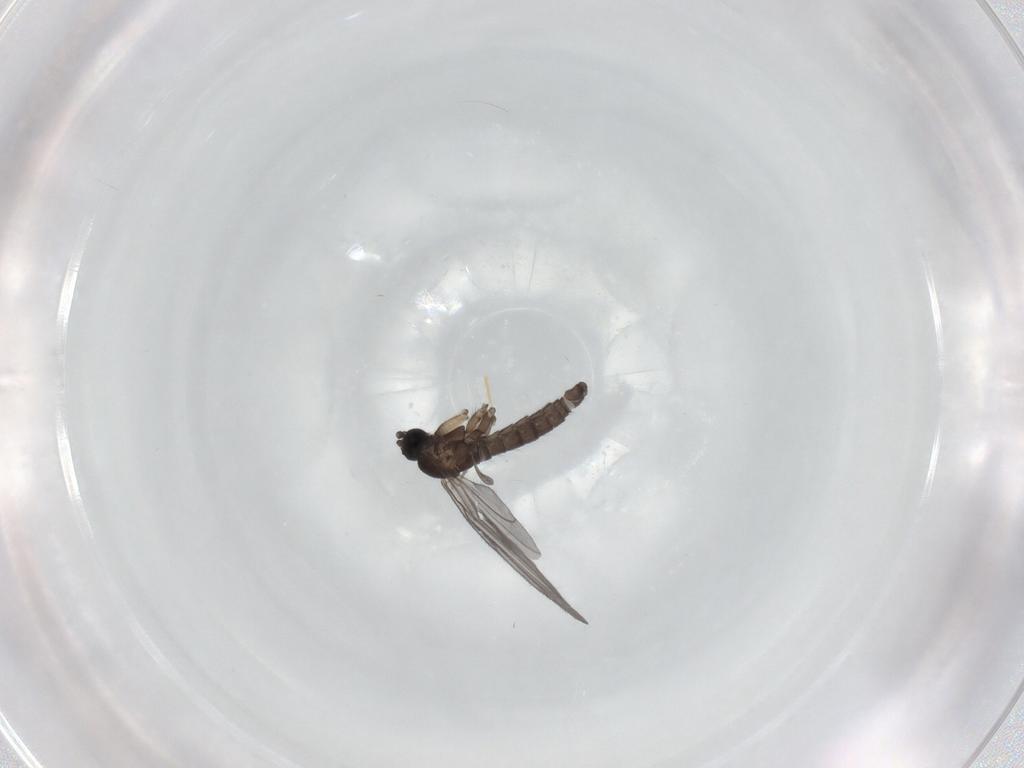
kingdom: Animalia
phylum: Arthropoda
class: Insecta
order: Diptera
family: Sciaridae
